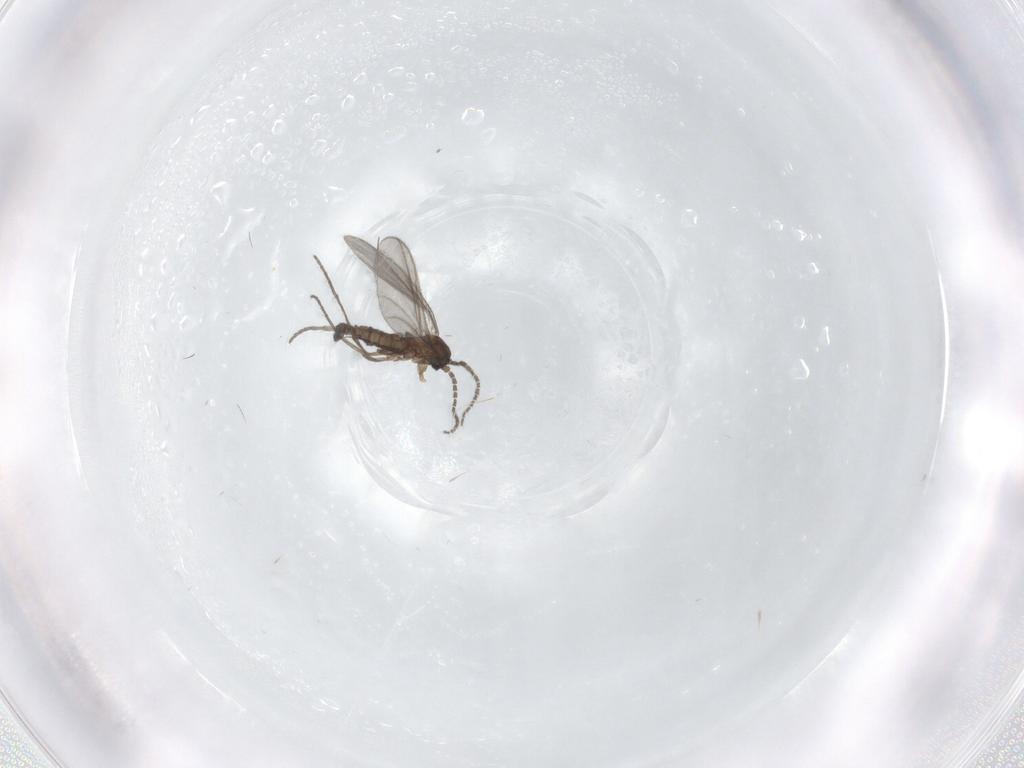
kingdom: Animalia
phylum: Arthropoda
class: Insecta
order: Diptera
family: Sciaridae
